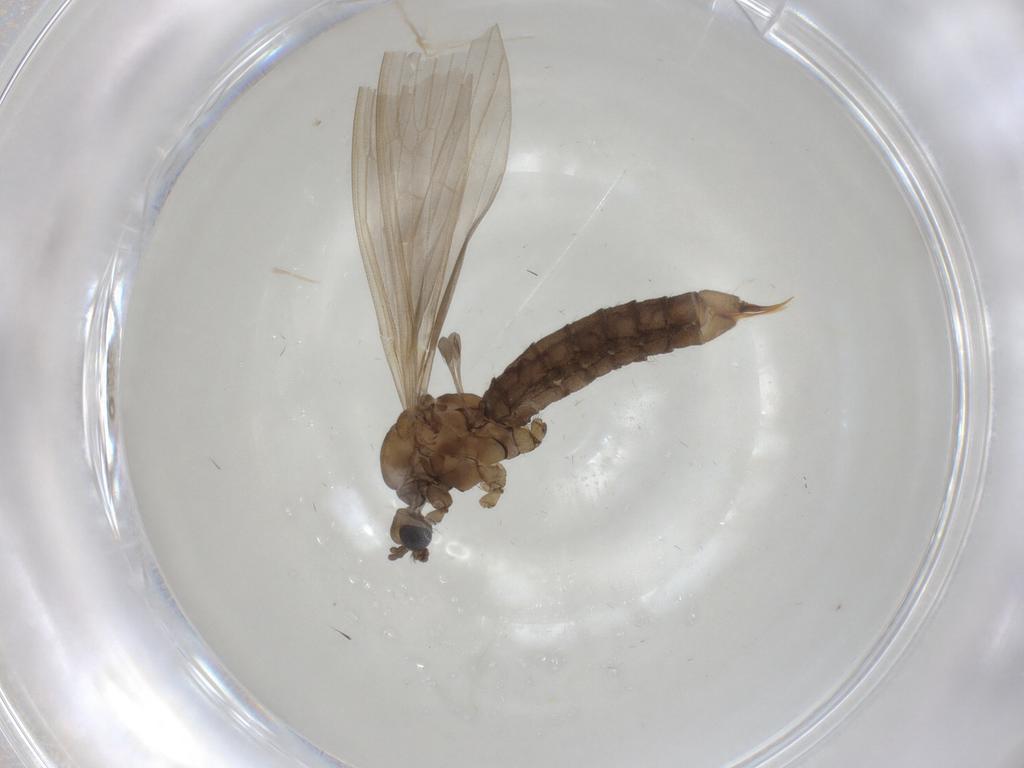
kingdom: Animalia
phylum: Arthropoda
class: Insecta
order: Diptera
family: Limoniidae
